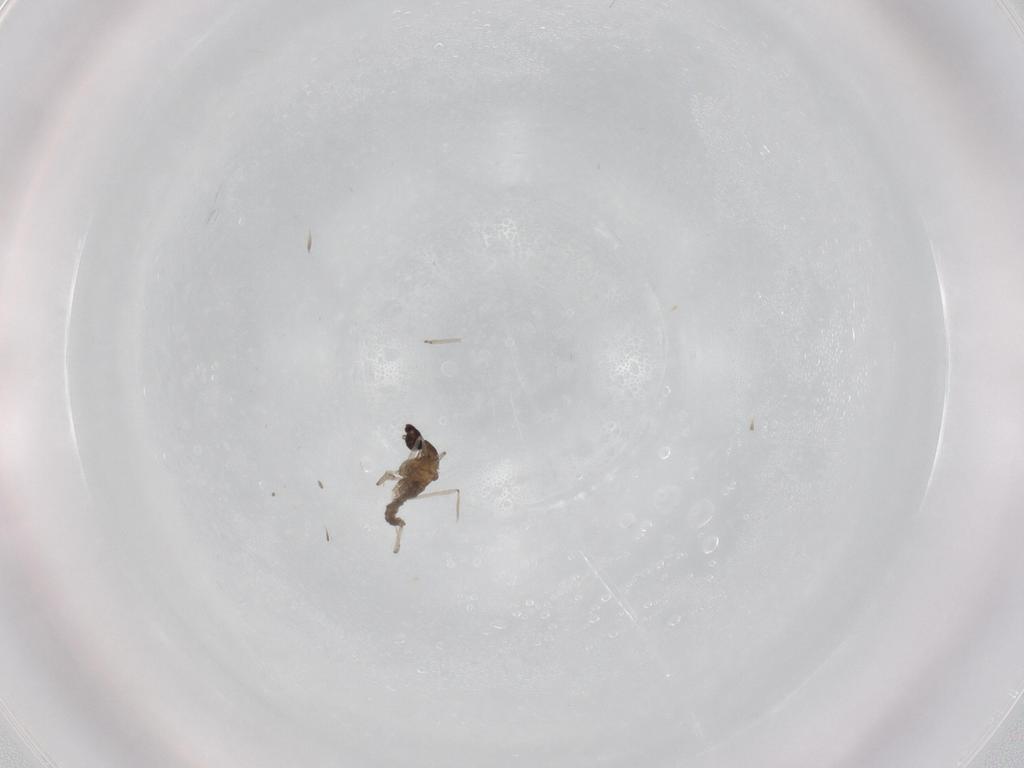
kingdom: Animalia
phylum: Arthropoda
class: Insecta
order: Diptera
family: Cecidomyiidae
